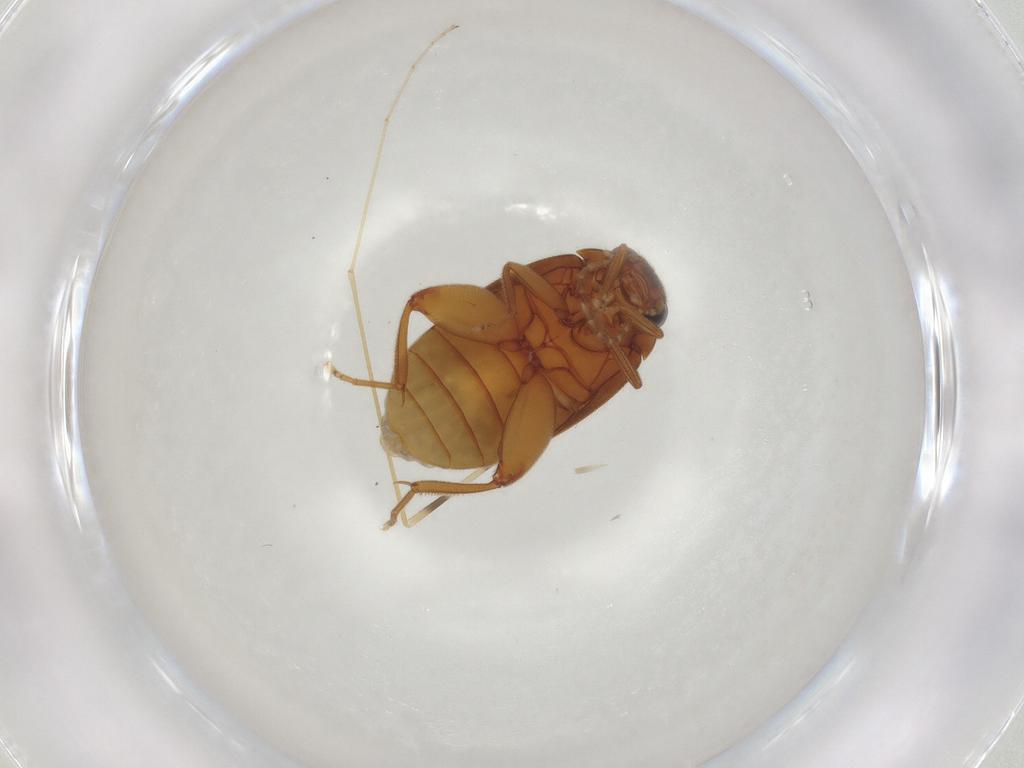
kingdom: Animalia
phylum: Arthropoda
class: Insecta
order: Coleoptera
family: Scirtidae
